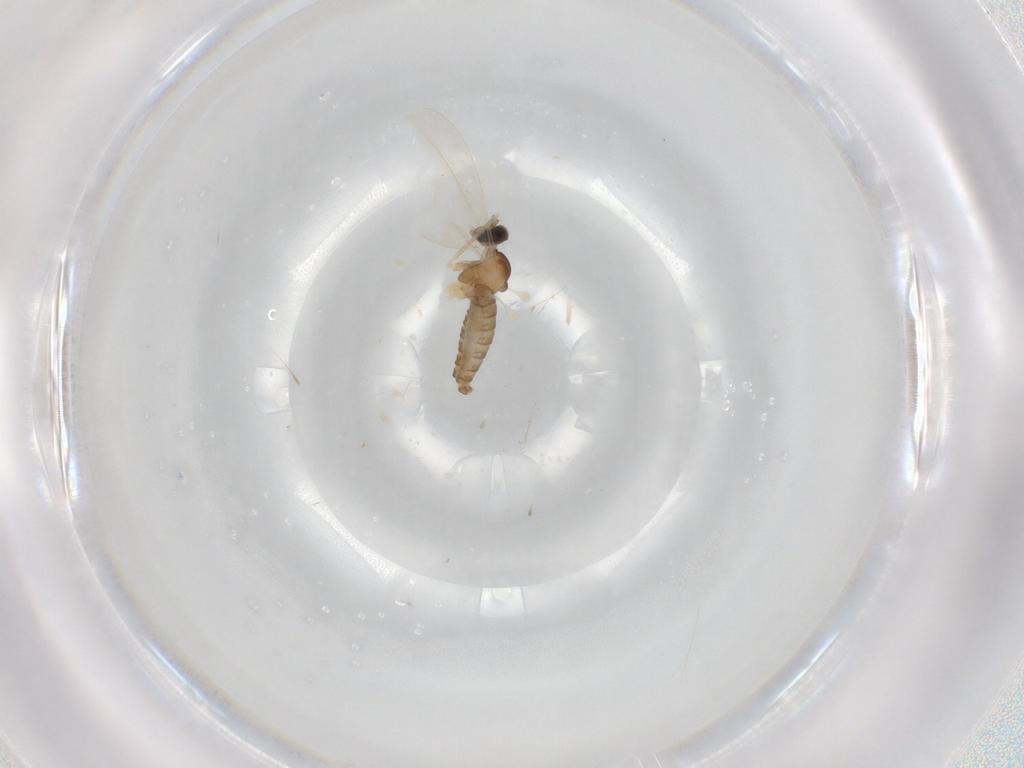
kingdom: Animalia
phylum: Arthropoda
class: Insecta
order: Diptera
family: Cecidomyiidae
